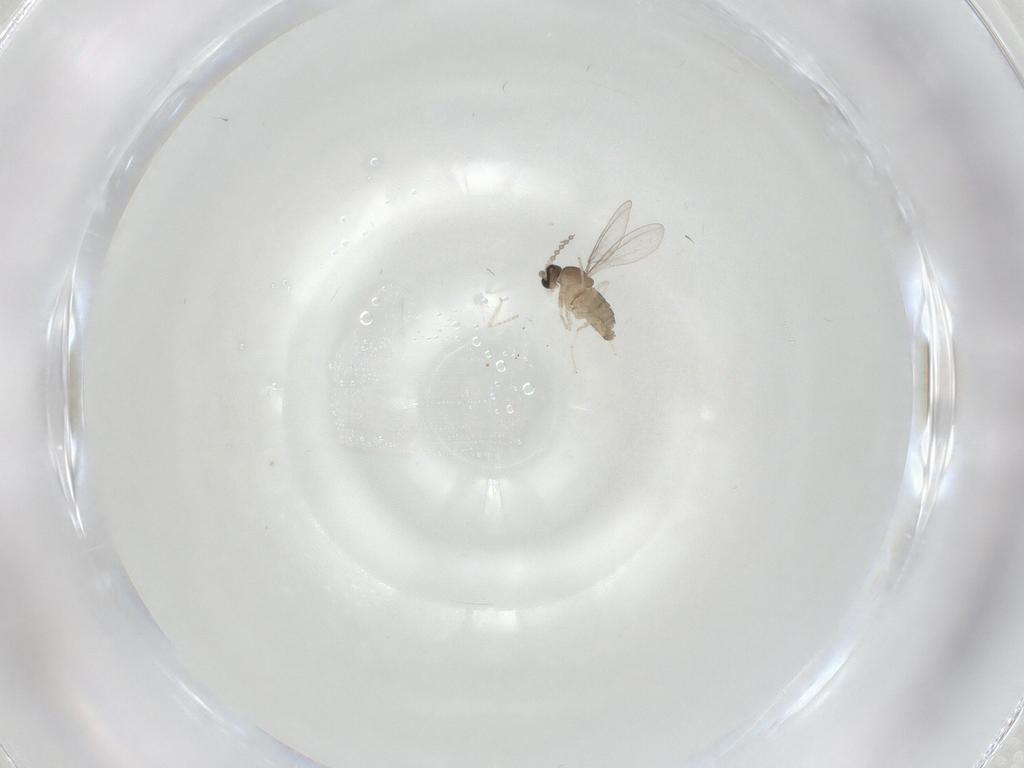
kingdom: Animalia
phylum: Arthropoda
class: Insecta
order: Diptera
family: Cecidomyiidae
